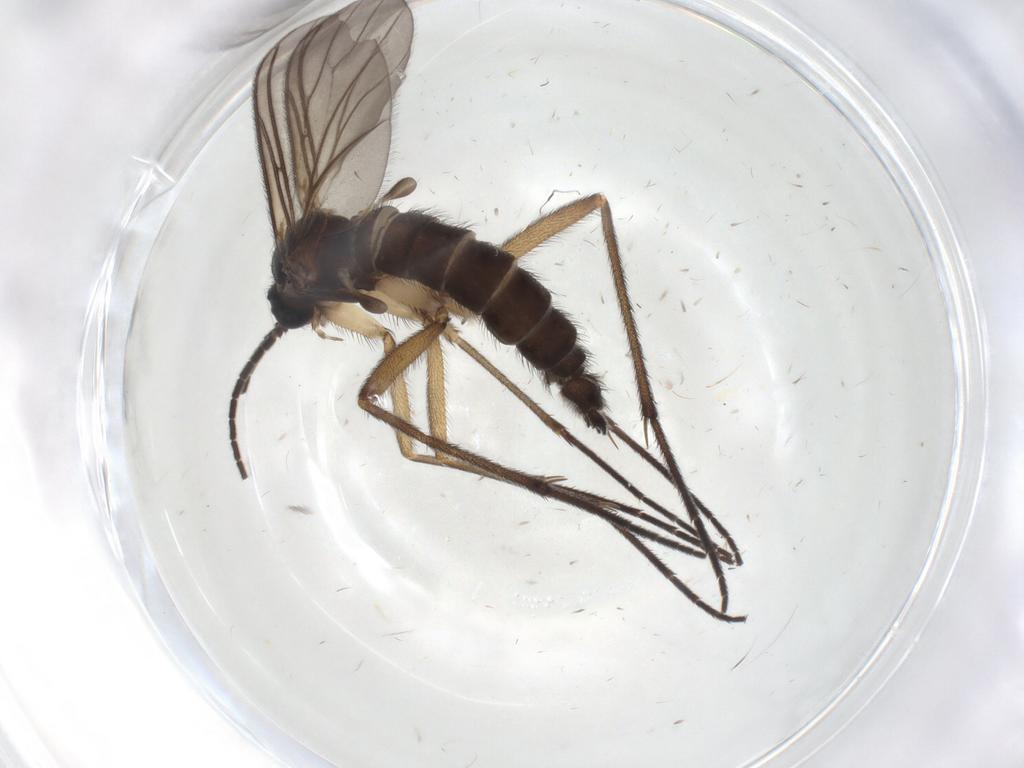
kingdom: Animalia
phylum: Arthropoda
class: Insecta
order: Diptera
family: Sciaridae
